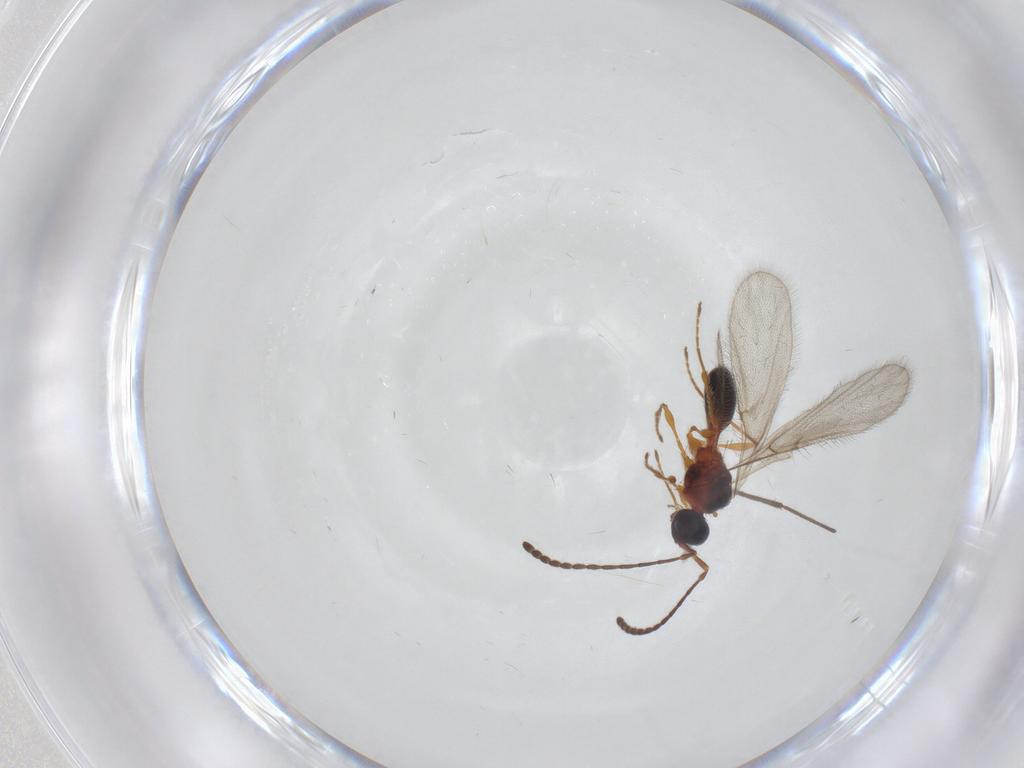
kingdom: Animalia
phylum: Arthropoda
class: Insecta
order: Hymenoptera
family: Diapriidae
